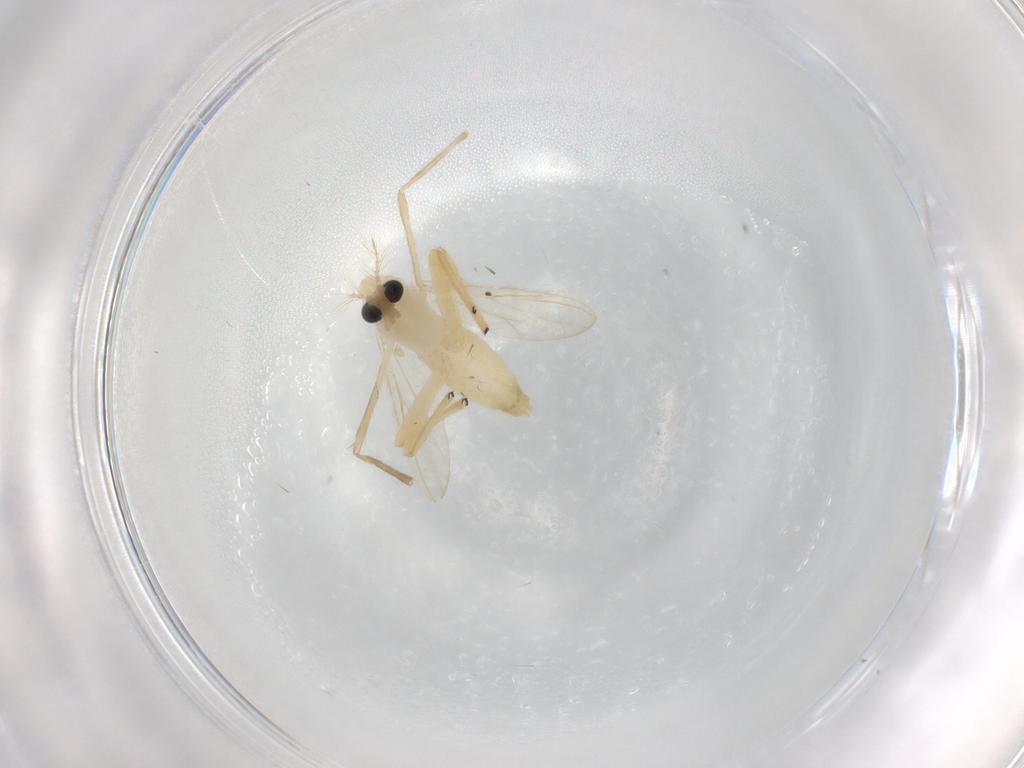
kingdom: Animalia
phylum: Arthropoda
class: Insecta
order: Diptera
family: Chironomidae
